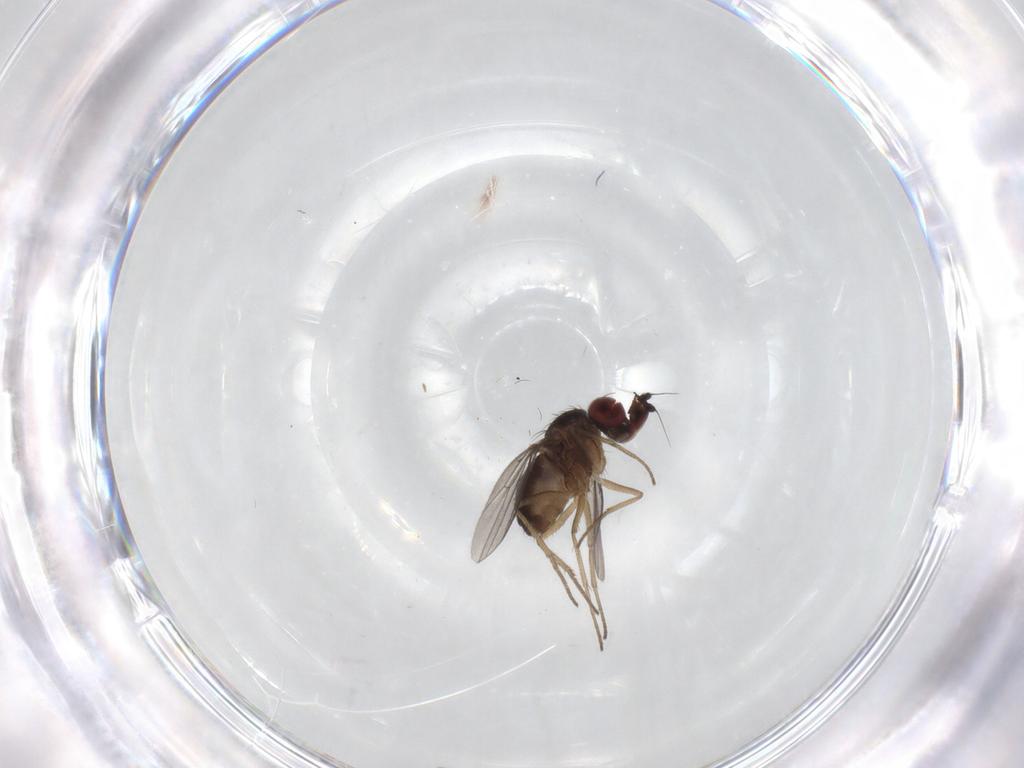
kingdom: Animalia
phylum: Arthropoda
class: Insecta
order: Diptera
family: Dolichopodidae
